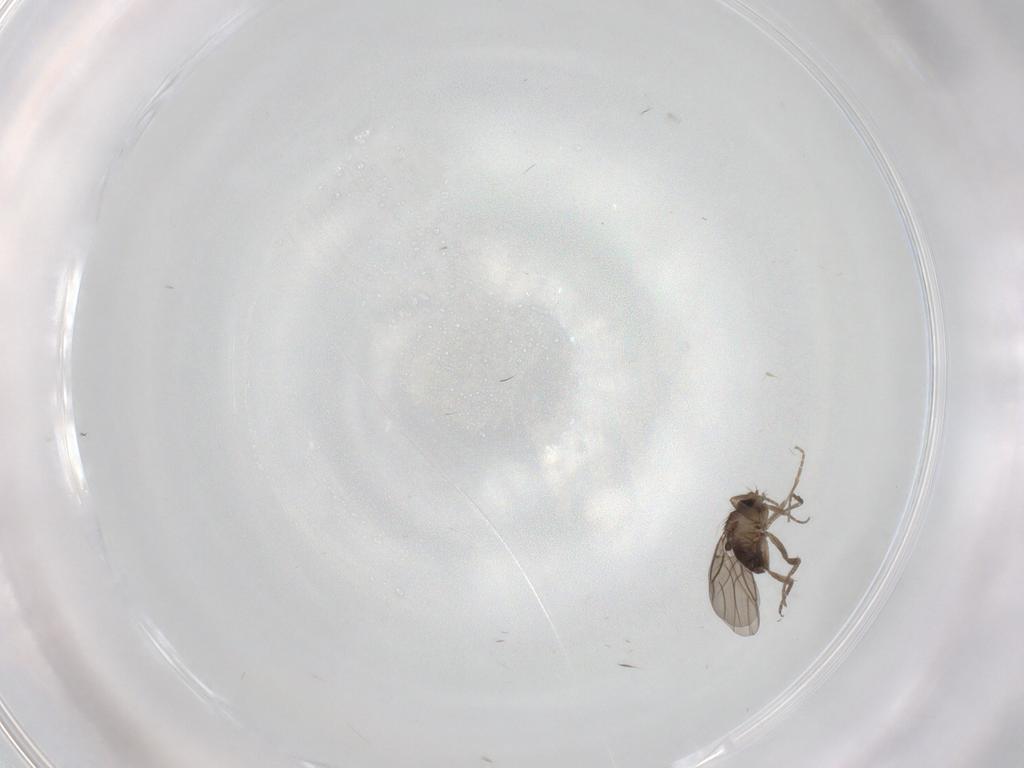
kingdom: Animalia
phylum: Arthropoda
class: Insecta
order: Diptera
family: Phoridae
